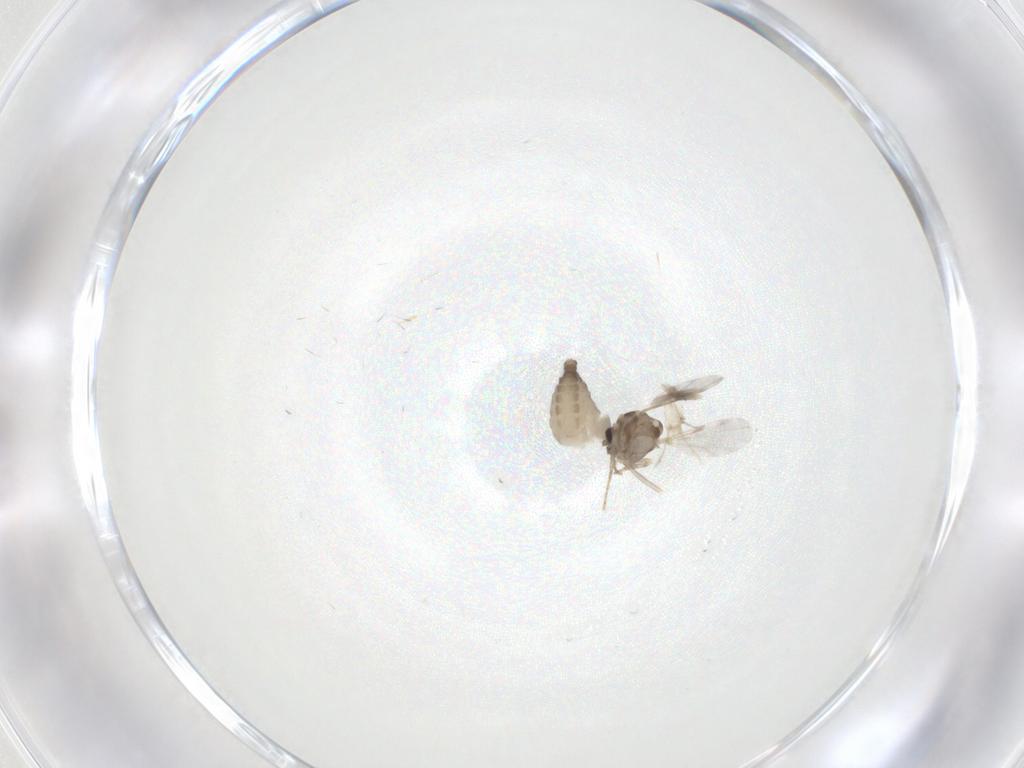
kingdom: Animalia
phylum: Arthropoda
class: Insecta
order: Diptera
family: Ceratopogonidae
